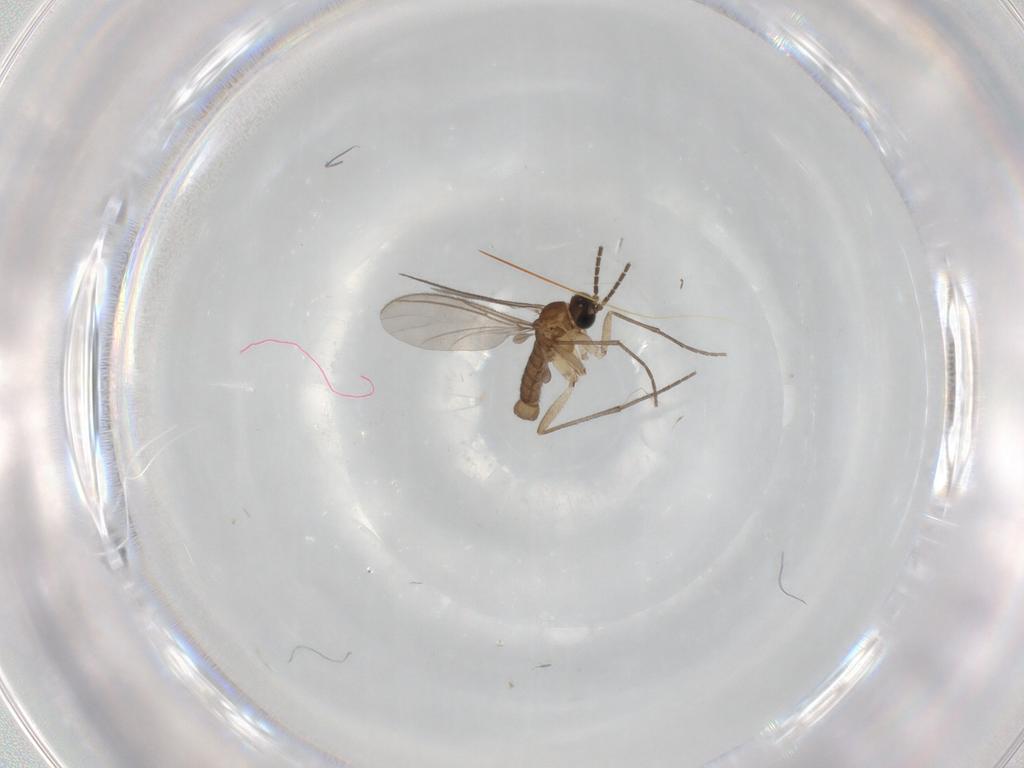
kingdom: Animalia
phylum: Arthropoda
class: Insecta
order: Diptera
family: Sciaridae
